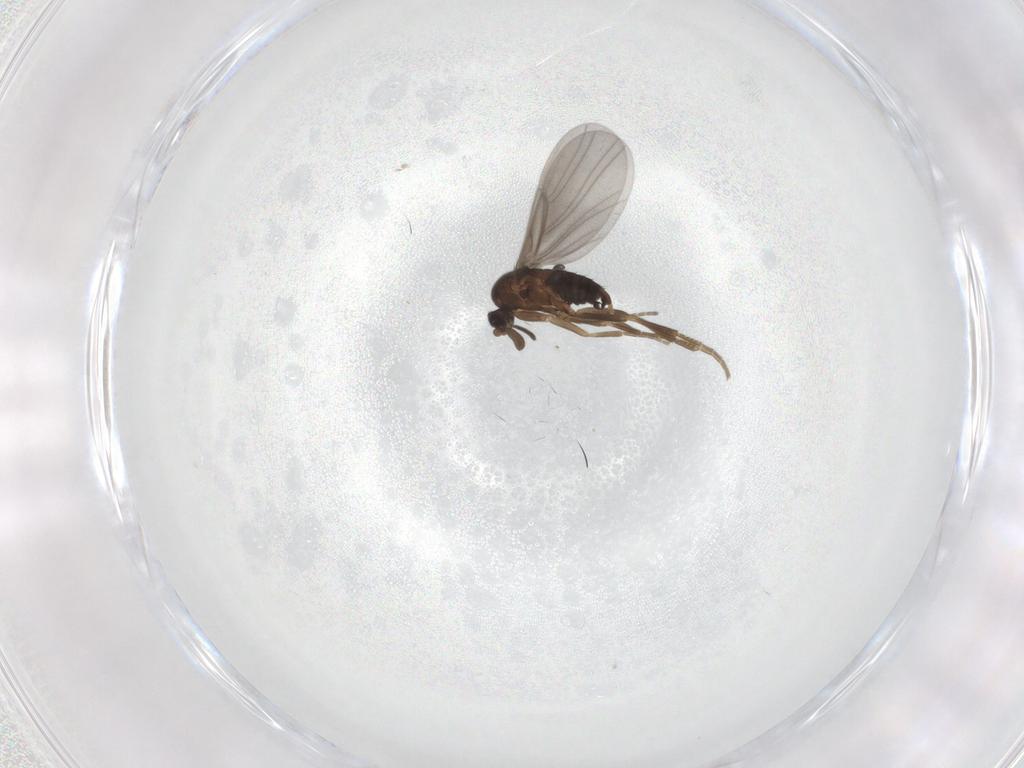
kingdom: Animalia
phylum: Arthropoda
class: Insecta
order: Diptera
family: Phoridae
